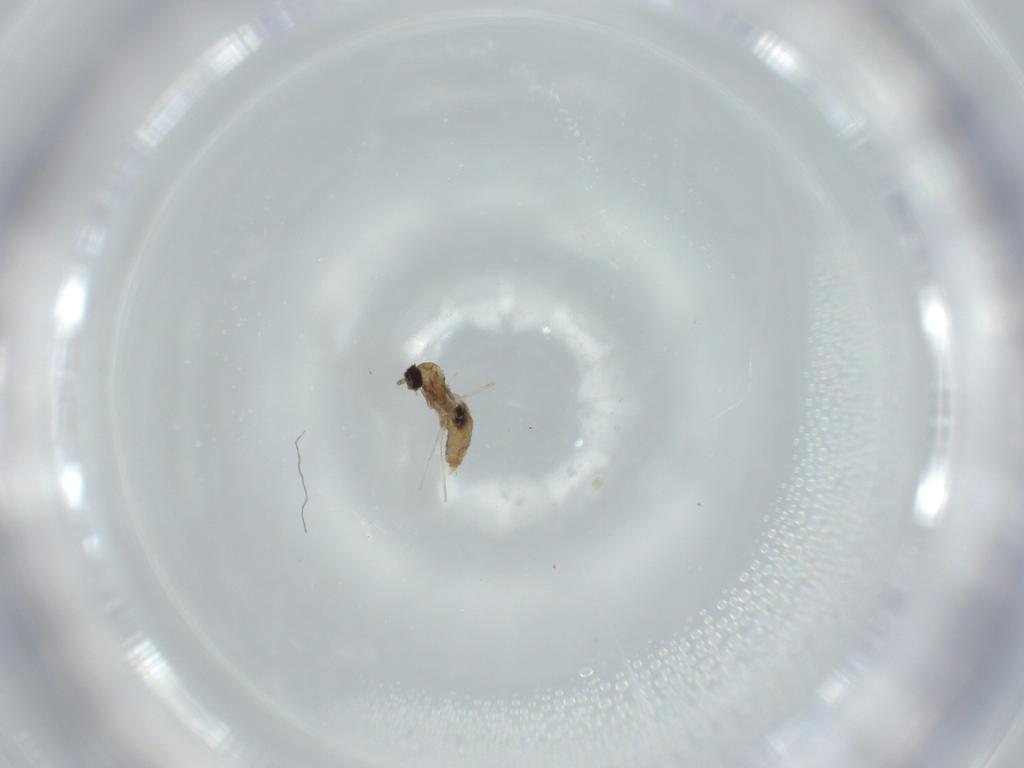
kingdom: Animalia
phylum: Arthropoda
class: Insecta
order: Diptera
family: Cecidomyiidae
